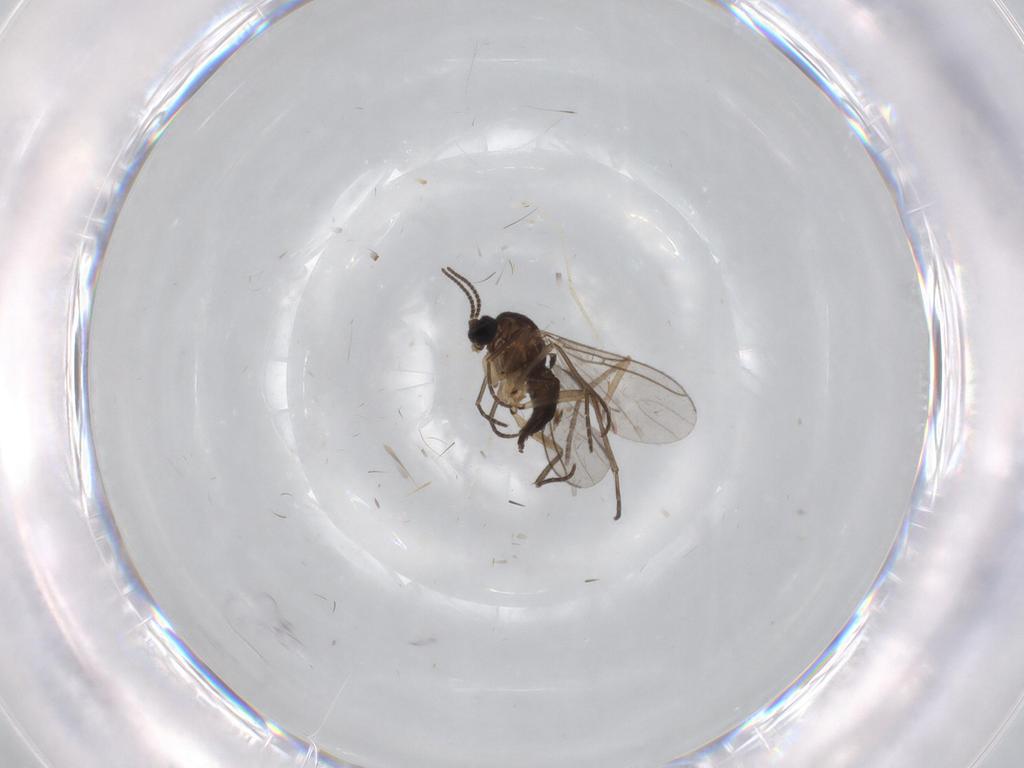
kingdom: Animalia
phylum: Arthropoda
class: Insecta
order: Diptera
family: Sciaridae
